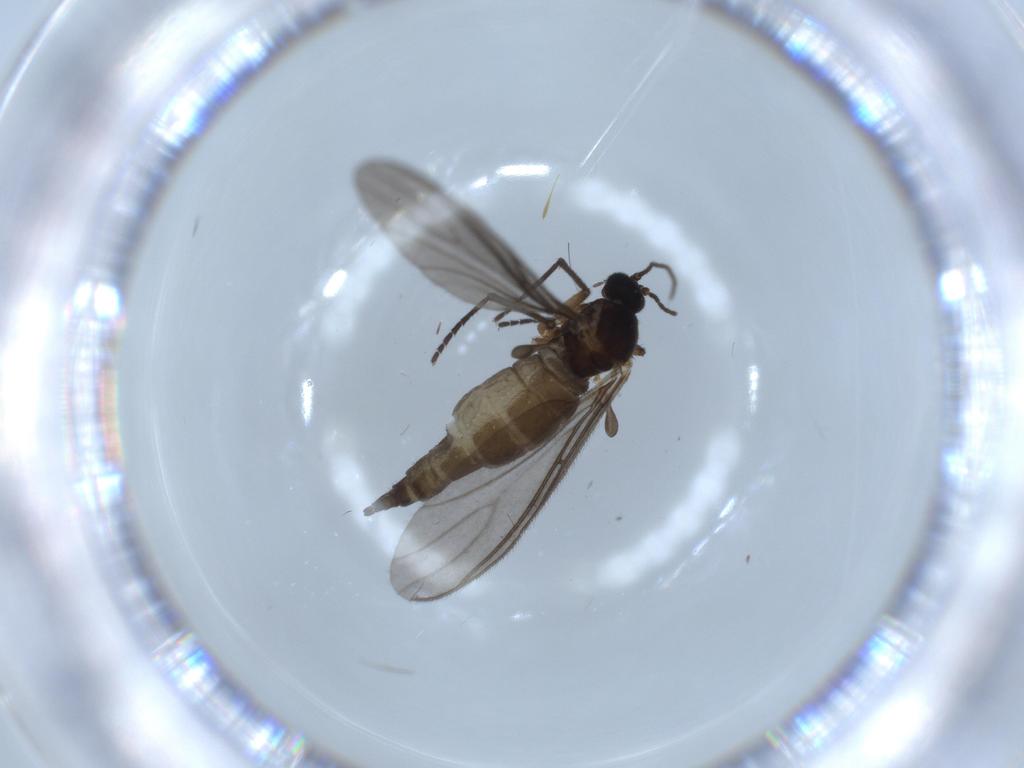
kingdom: Animalia
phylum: Arthropoda
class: Insecta
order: Diptera
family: Sciaridae
